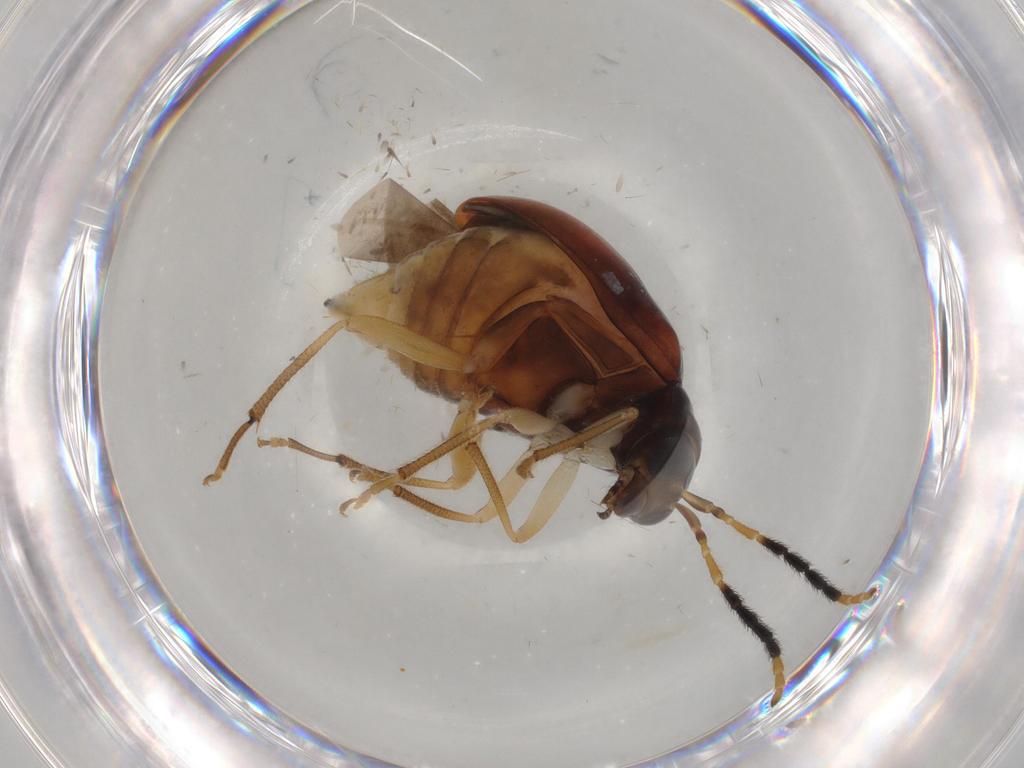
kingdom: Animalia
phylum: Arthropoda
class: Insecta
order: Coleoptera
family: Chrysomelidae
